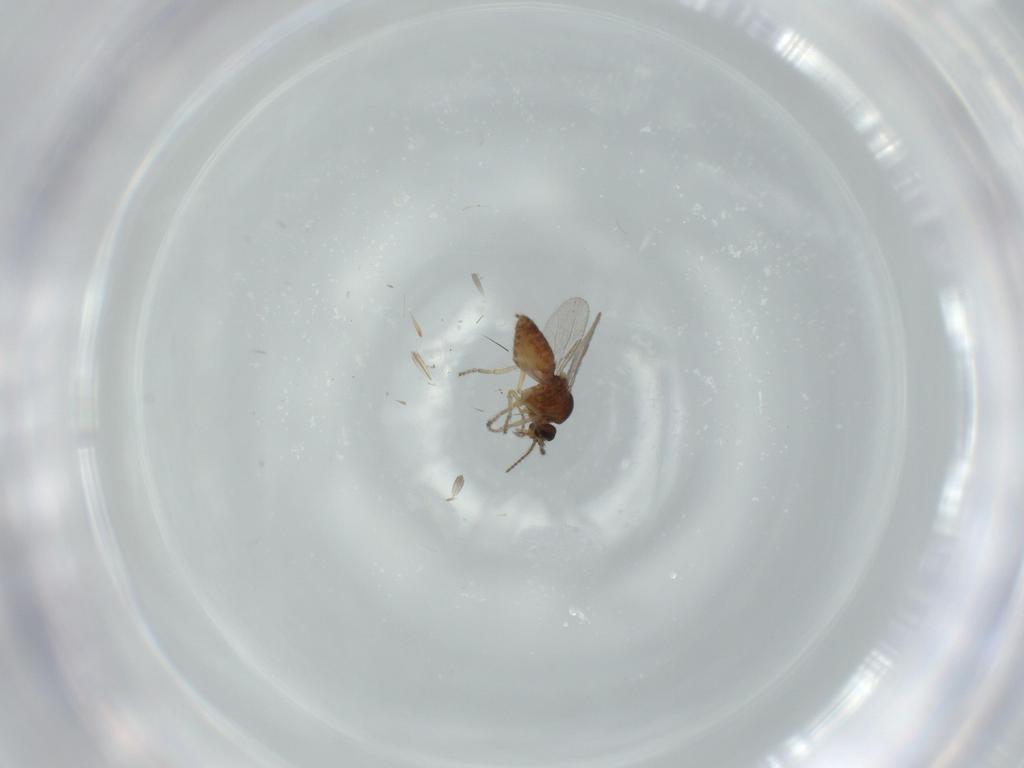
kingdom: Animalia
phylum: Arthropoda
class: Insecta
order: Diptera
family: Ceratopogonidae
